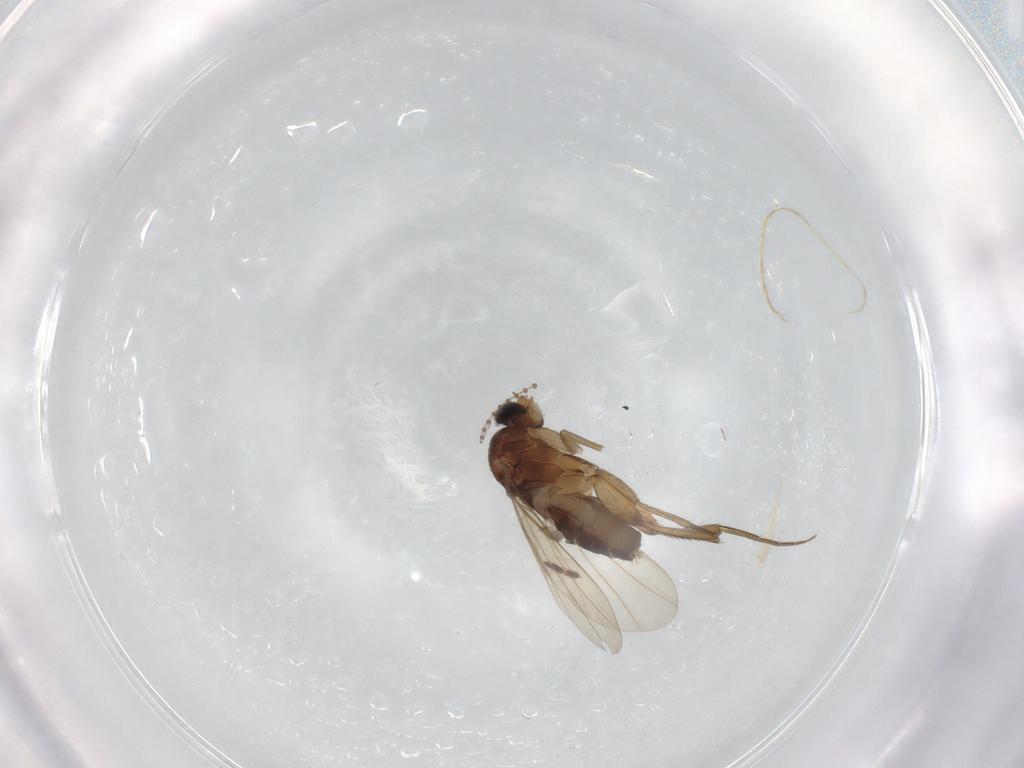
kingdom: Animalia
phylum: Arthropoda
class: Insecta
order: Diptera
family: Phoridae
